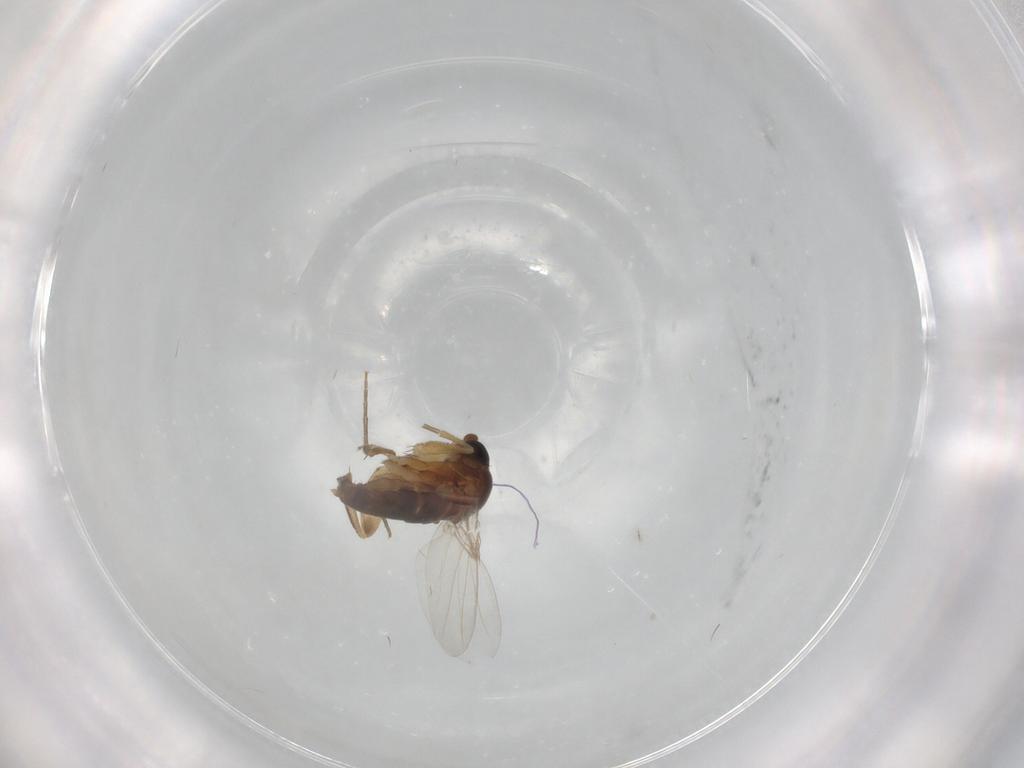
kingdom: Animalia
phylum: Arthropoda
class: Insecta
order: Diptera
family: Phoridae
